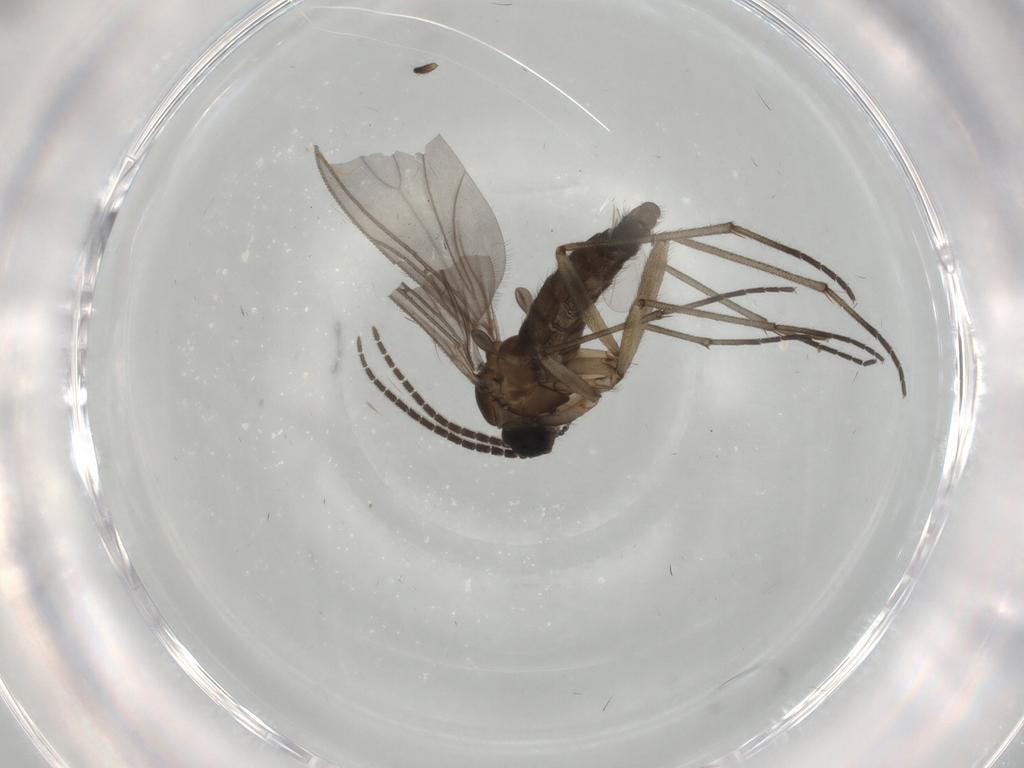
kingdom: Animalia
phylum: Arthropoda
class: Insecta
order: Diptera
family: Sciaridae
